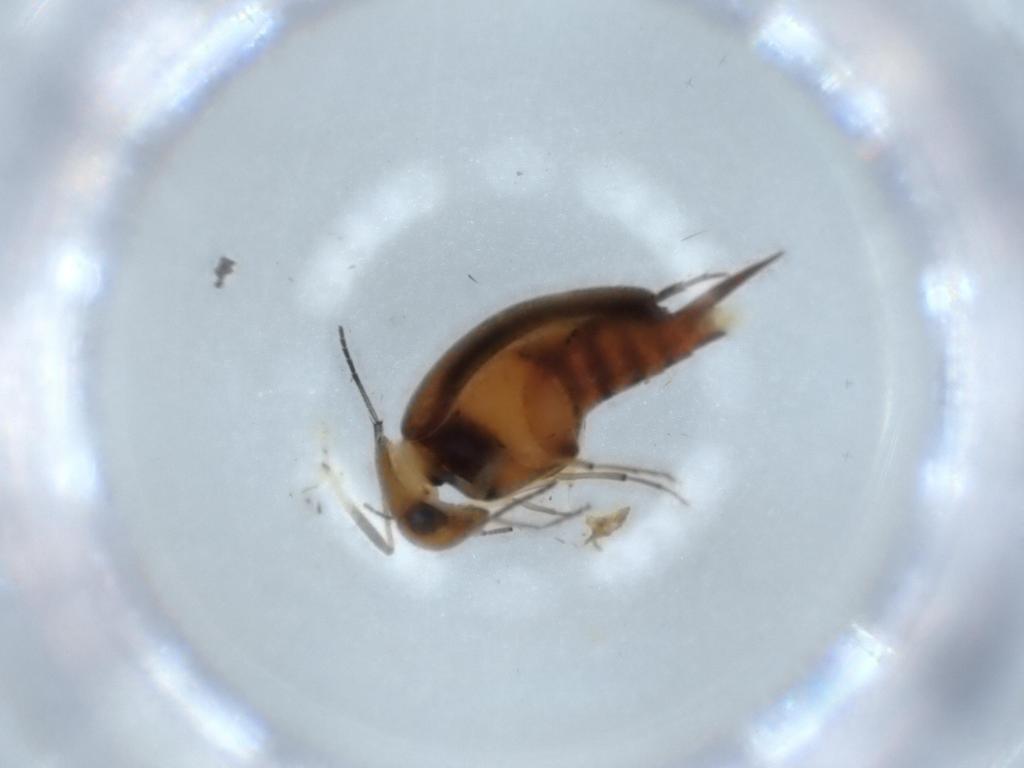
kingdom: Animalia
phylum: Arthropoda
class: Insecta
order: Coleoptera
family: Mordellidae
